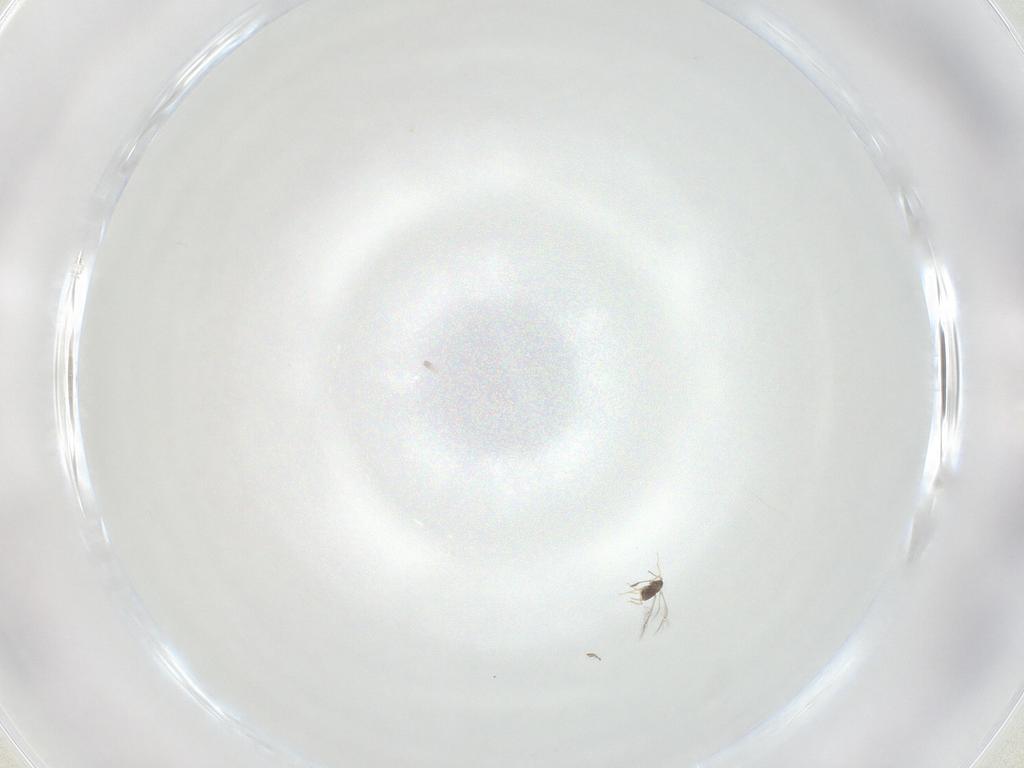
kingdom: Animalia
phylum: Arthropoda
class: Insecta
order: Hymenoptera
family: Mymaridae
